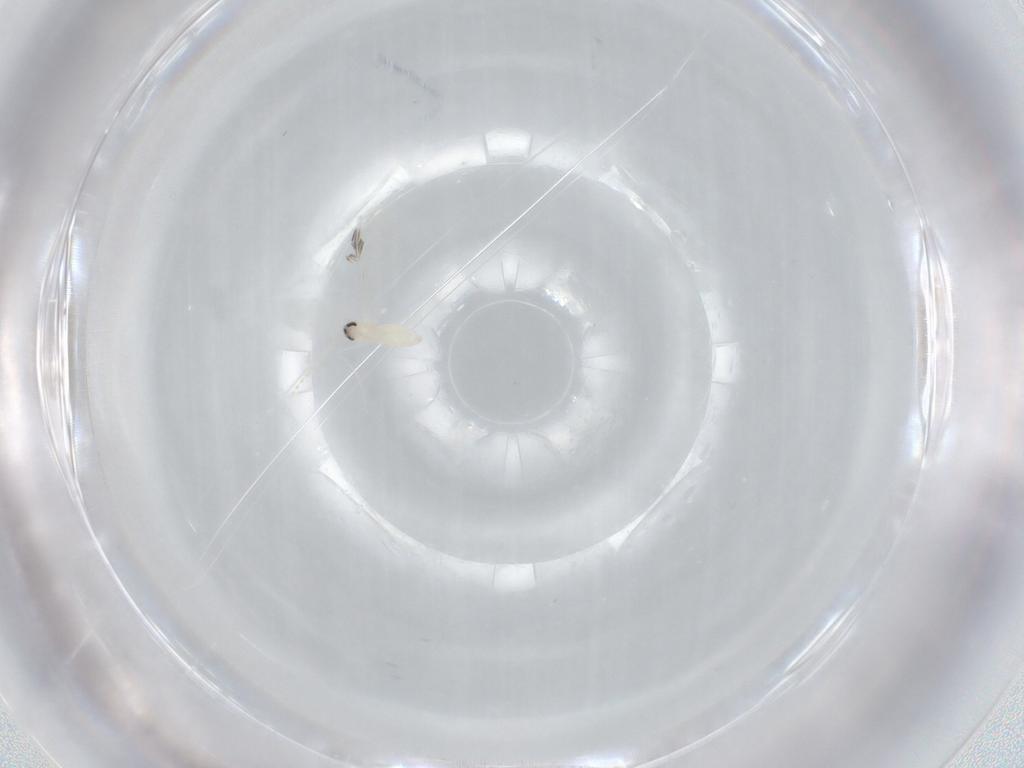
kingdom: Animalia
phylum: Arthropoda
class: Insecta
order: Diptera
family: Cecidomyiidae
